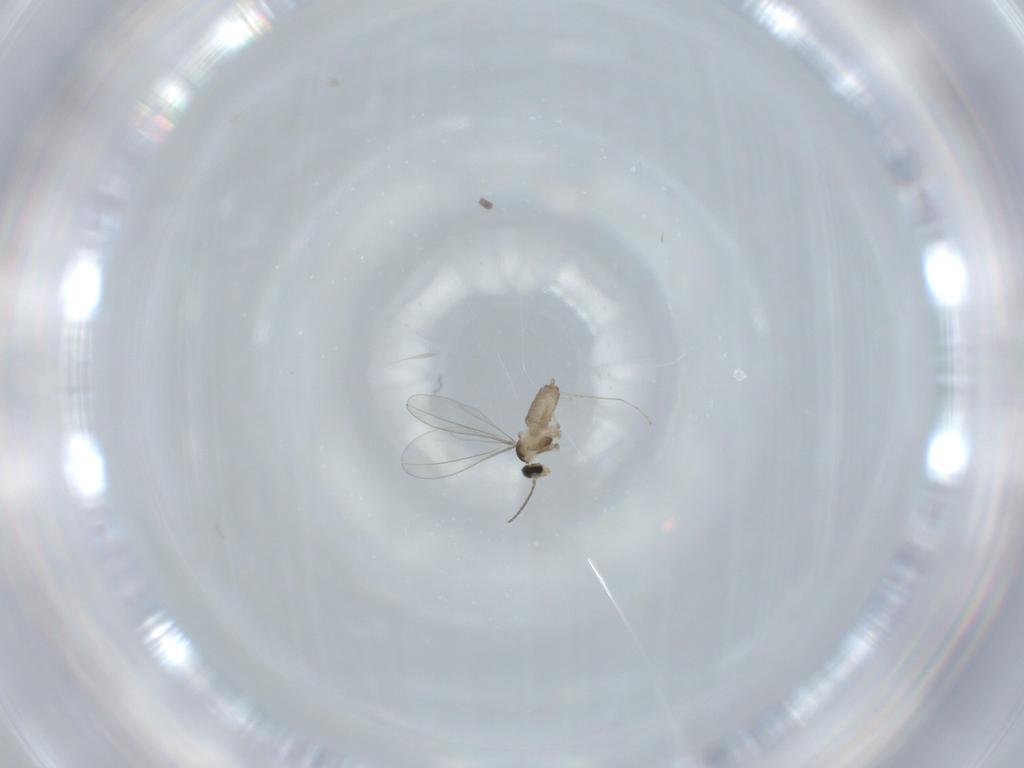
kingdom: Animalia
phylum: Arthropoda
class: Insecta
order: Diptera
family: Cecidomyiidae
